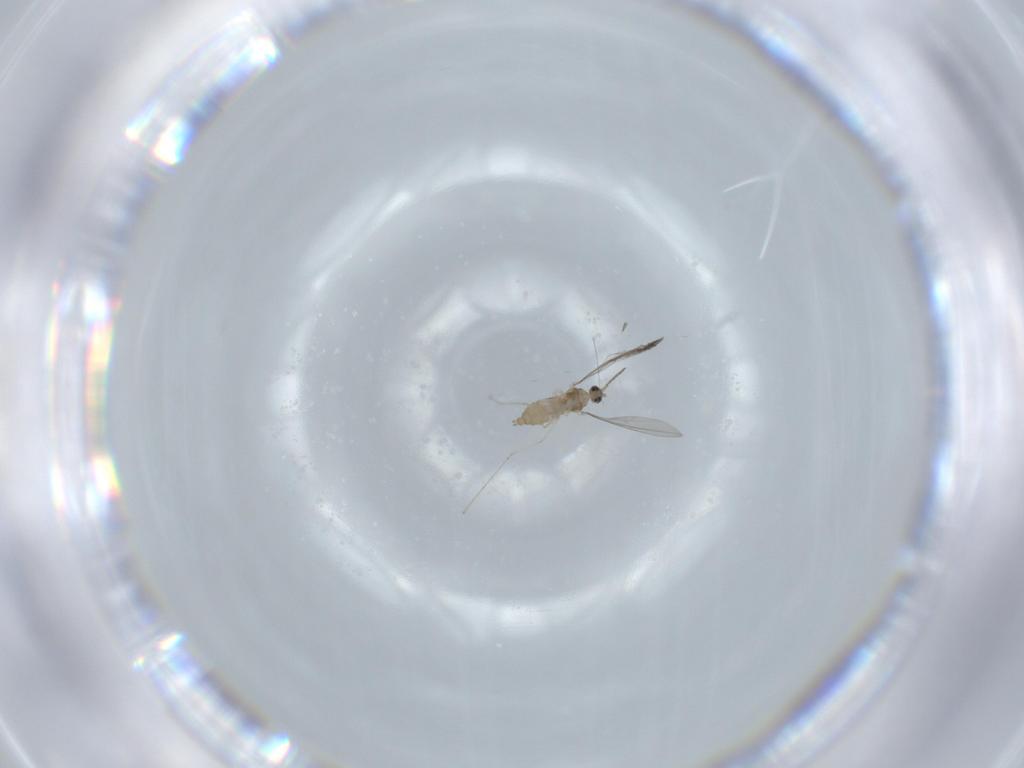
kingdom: Animalia
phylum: Arthropoda
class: Insecta
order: Diptera
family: Cecidomyiidae
